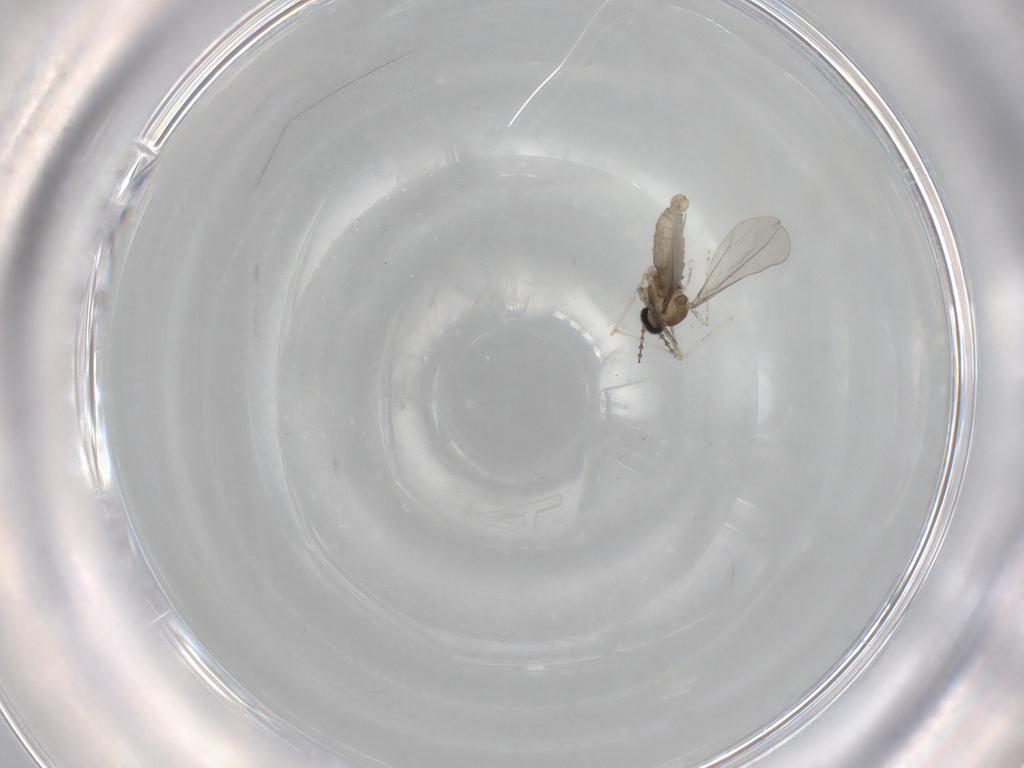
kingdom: Animalia
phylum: Arthropoda
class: Insecta
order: Diptera
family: Cecidomyiidae
